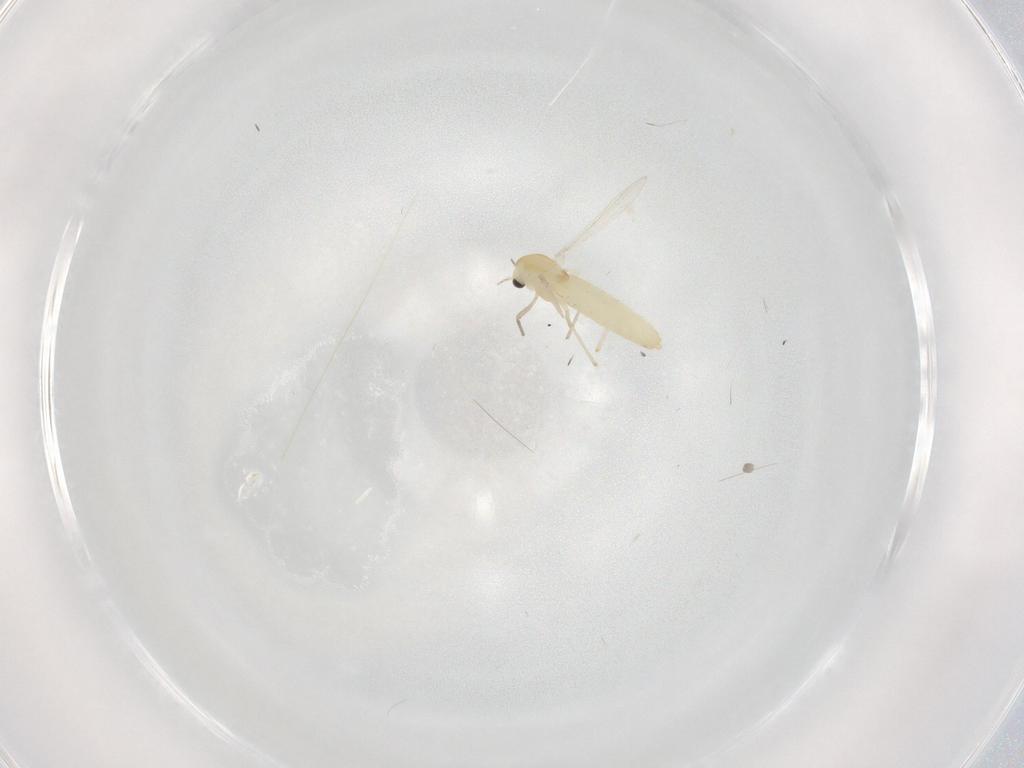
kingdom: Animalia
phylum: Arthropoda
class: Insecta
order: Diptera
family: Chironomidae
